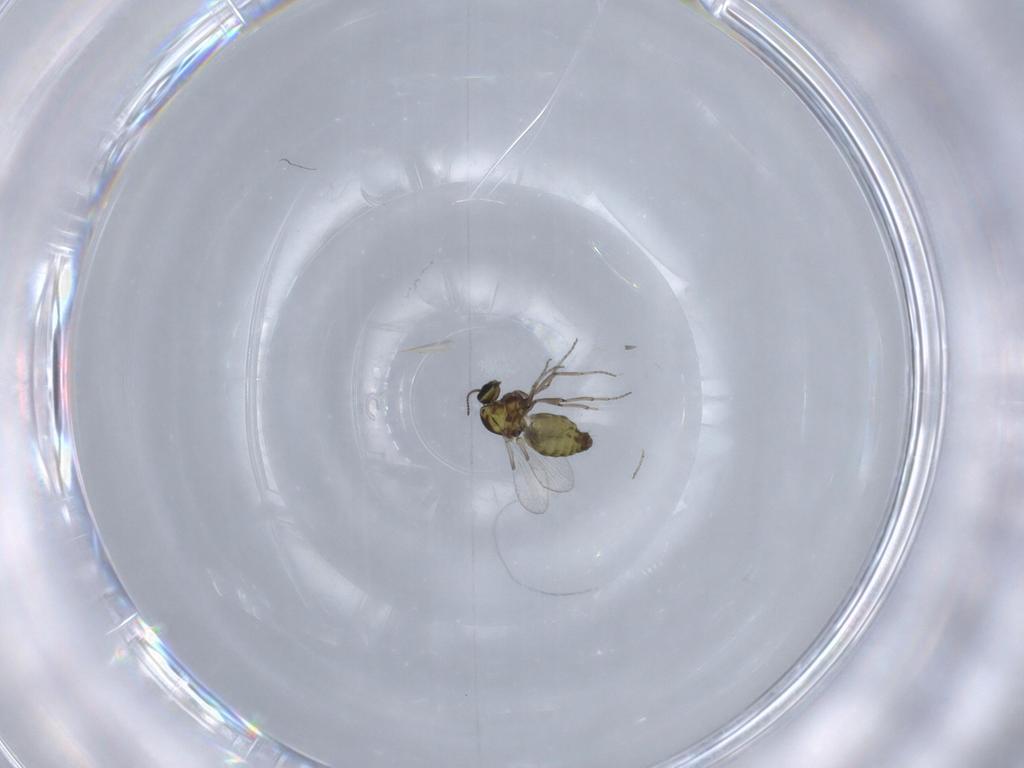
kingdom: Animalia
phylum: Arthropoda
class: Insecta
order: Diptera
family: Ceratopogonidae
